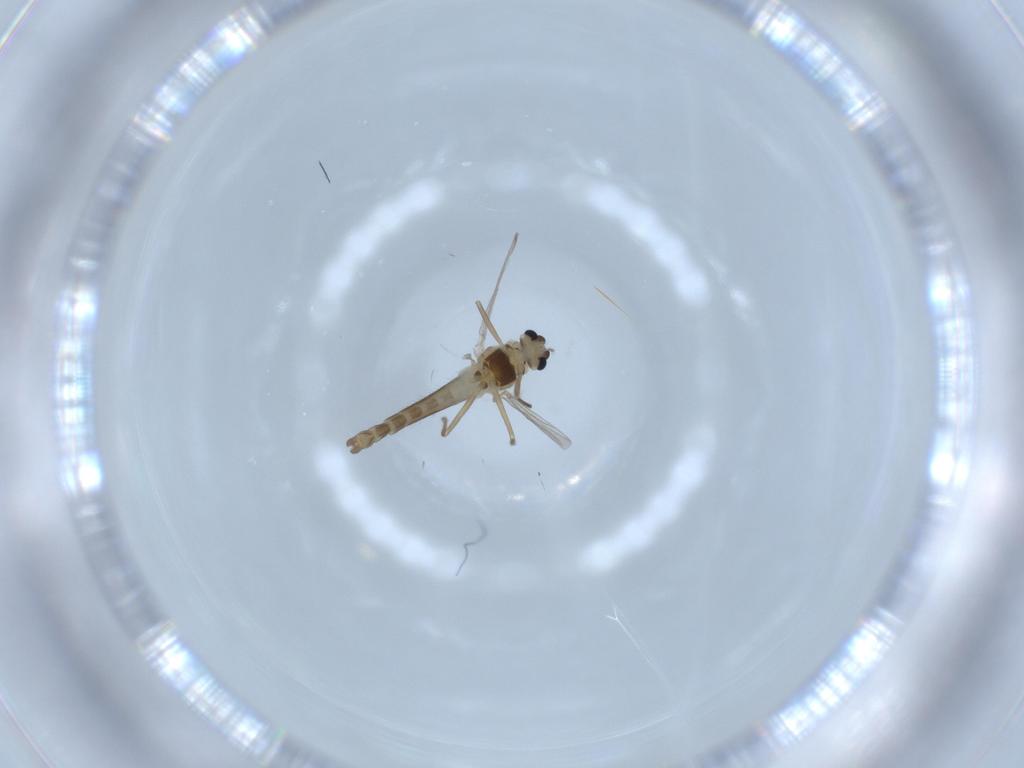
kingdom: Animalia
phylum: Arthropoda
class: Insecta
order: Diptera
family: Chironomidae
